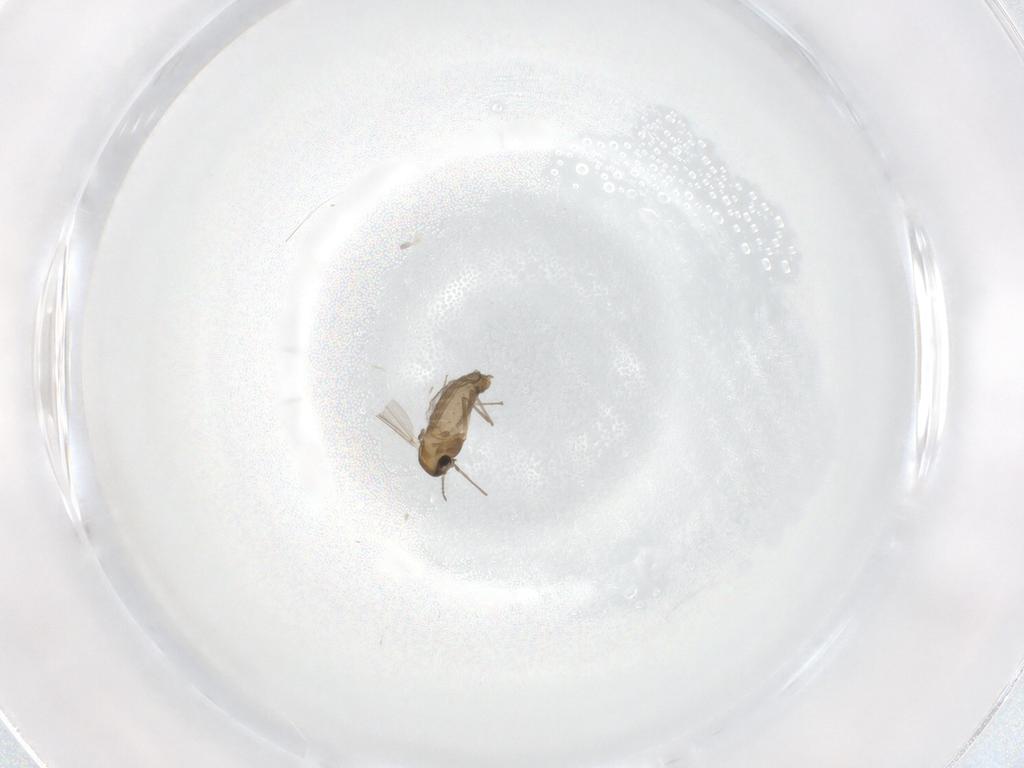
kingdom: Animalia
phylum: Arthropoda
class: Insecta
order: Diptera
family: Chironomidae
